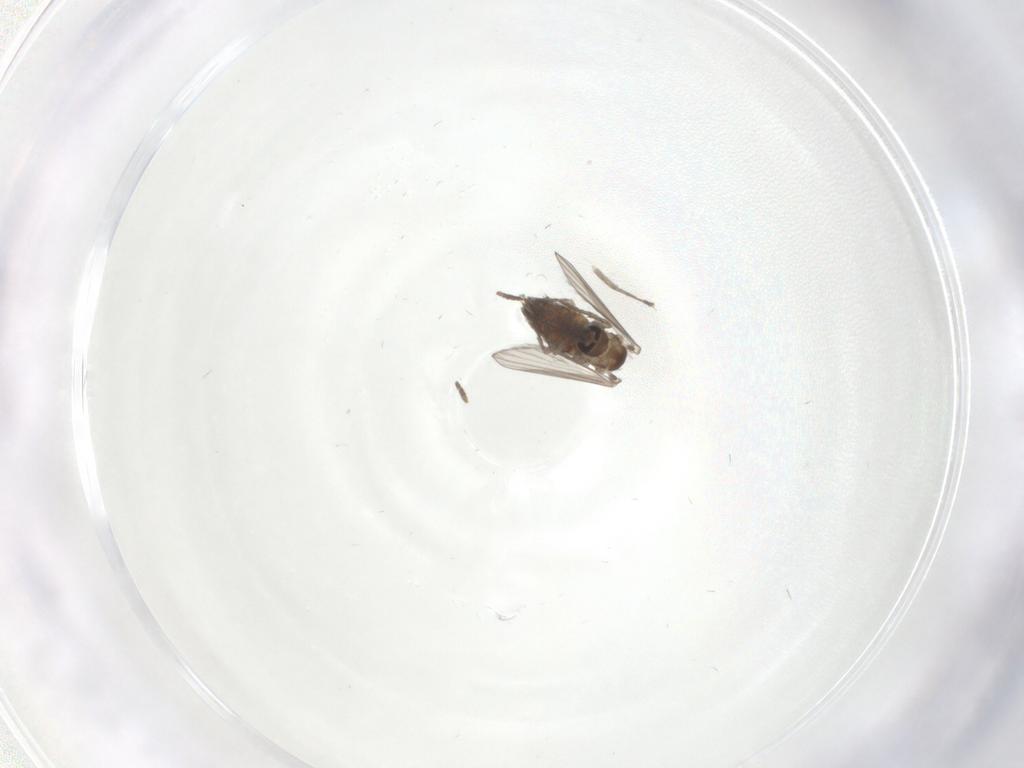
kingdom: Animalia
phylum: Arthropoda
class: Insecta
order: Diptera
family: Psychodidae
